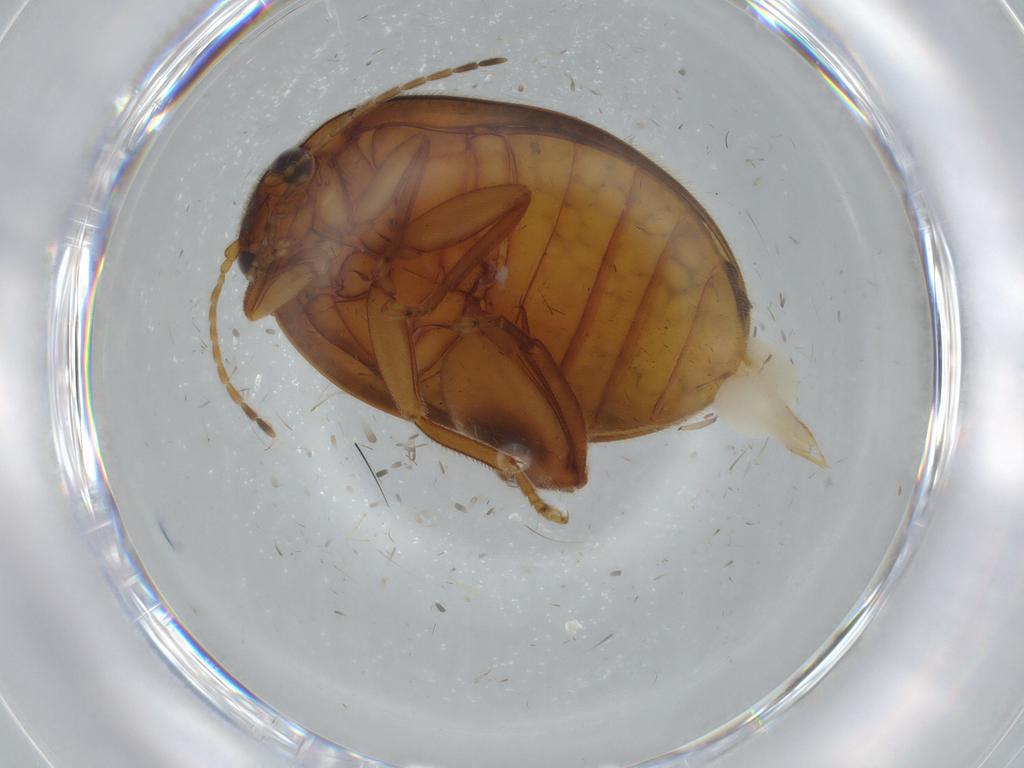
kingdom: Animalia
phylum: Arthropoda
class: Insecta
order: Coleoptera
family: Scirtidae
